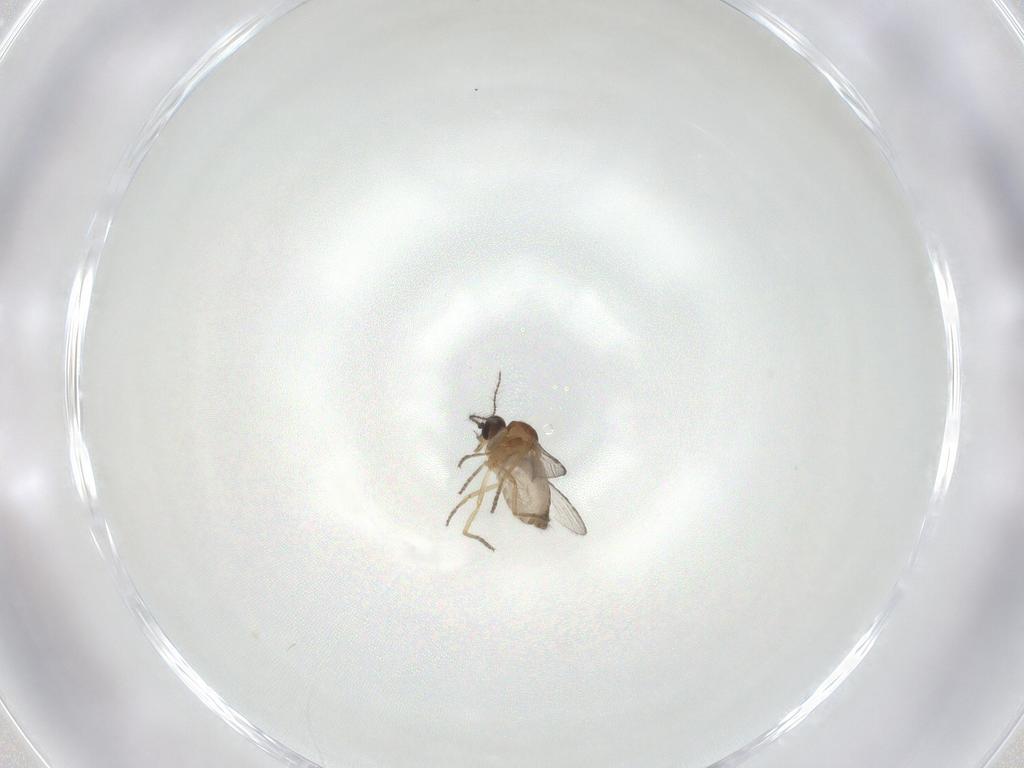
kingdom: Animalia
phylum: Arthropoda
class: Insecta
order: Diptera
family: Ceratopogonidae
